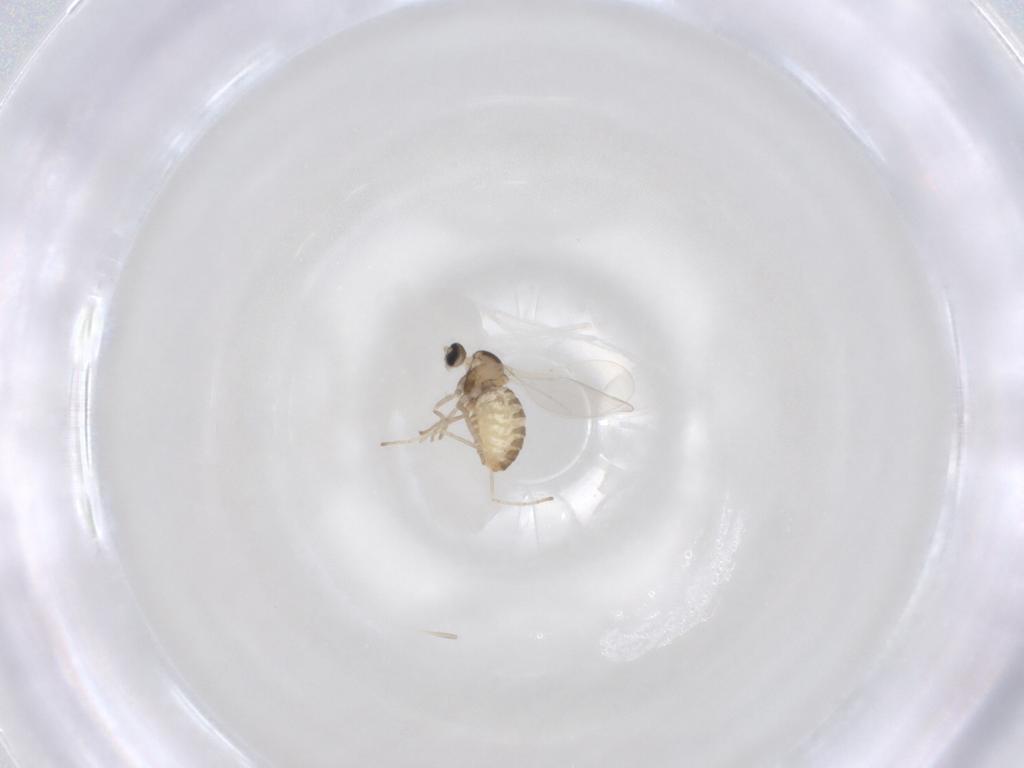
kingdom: Animalia
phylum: Arthropoda
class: Insecta
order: Diptera
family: Cecidomyiidae
